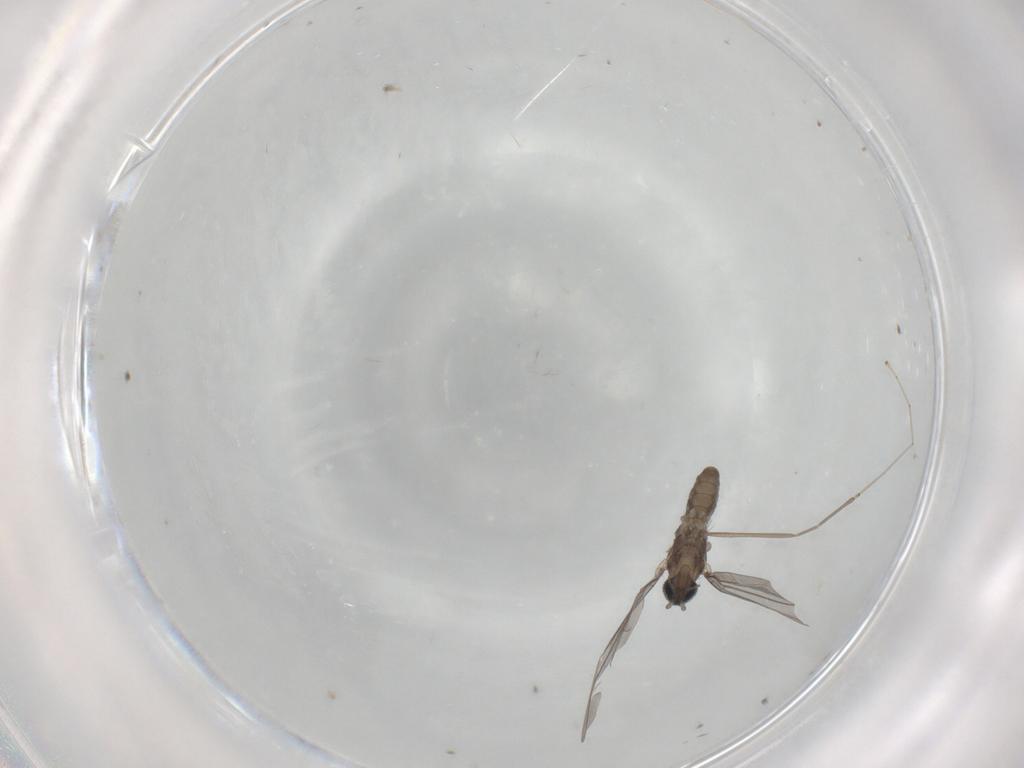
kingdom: Animalia
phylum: Arthropoda
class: Insecta
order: Diptera
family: Cecidomyiidae
